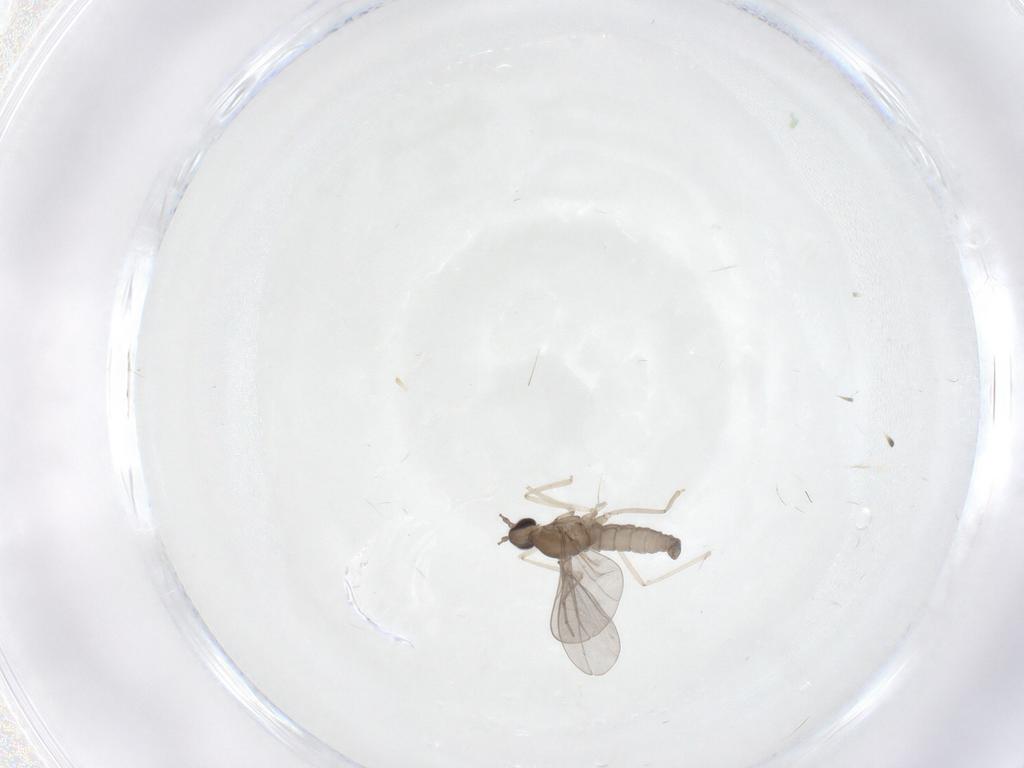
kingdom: Animalia
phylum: Arthropoda
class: Insecta
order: Diptera
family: Cecidomyiidae
